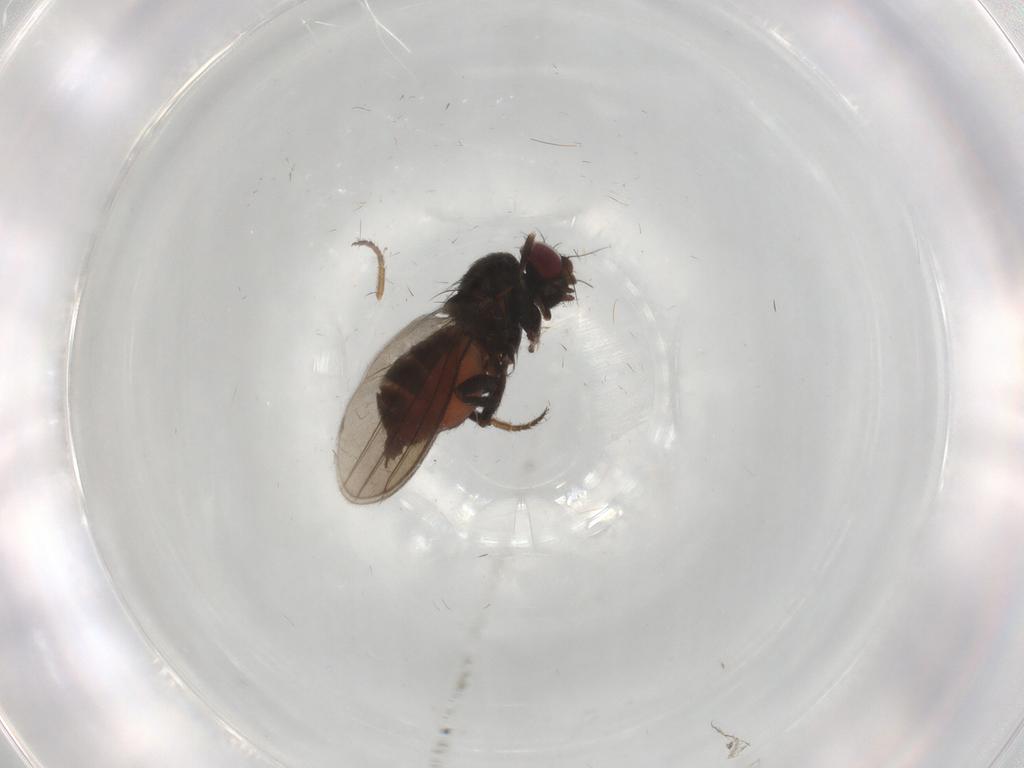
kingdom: Animalia
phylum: Arthropoda
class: Insecta
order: Diptera
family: Milichiidae
